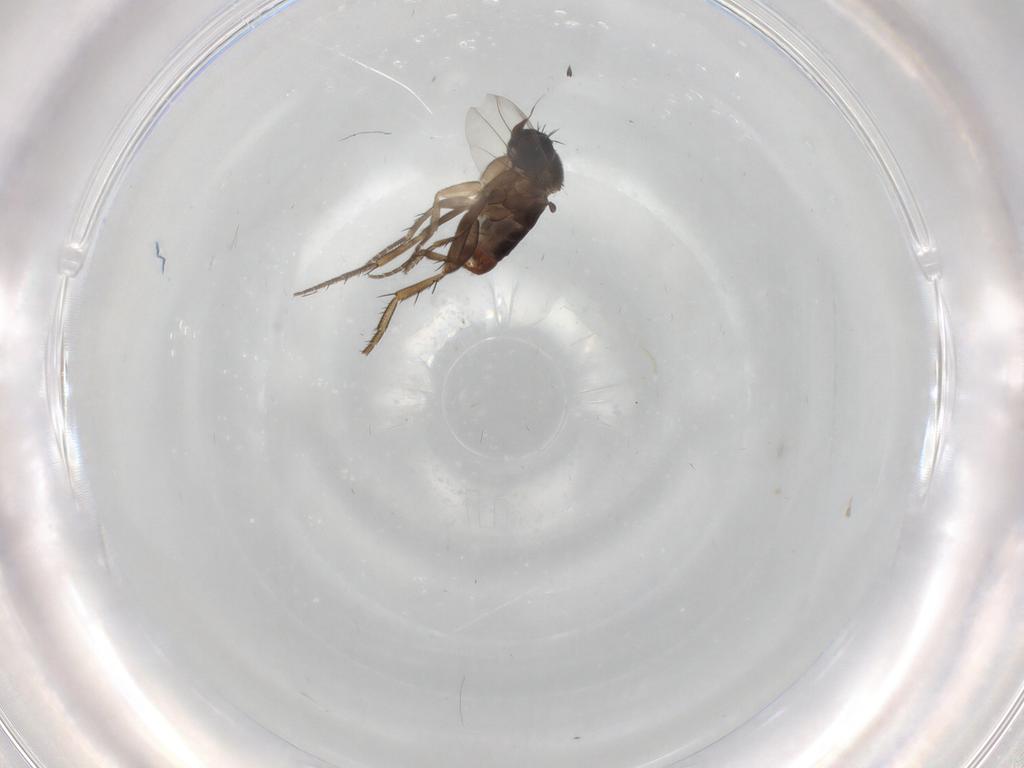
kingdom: Animalia
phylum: Arthropoda
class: Insecta
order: Diptera
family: Phoridae
